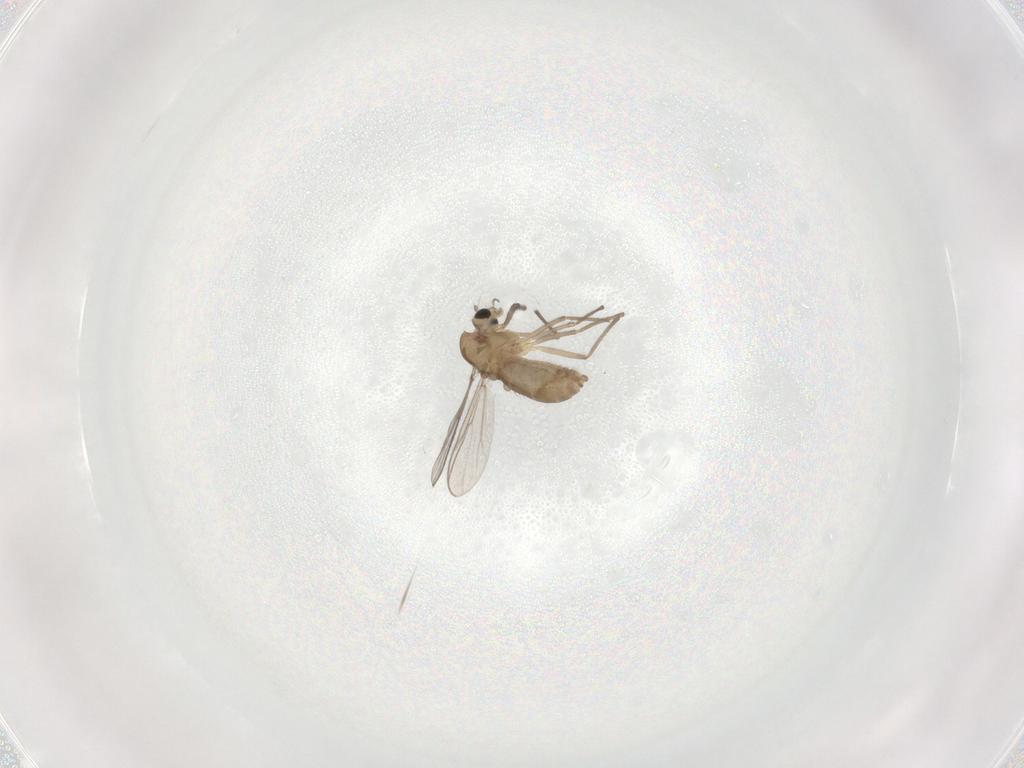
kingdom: Animalia
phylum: Arthropoda
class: Insecta
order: Diptera
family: Chironomidae
